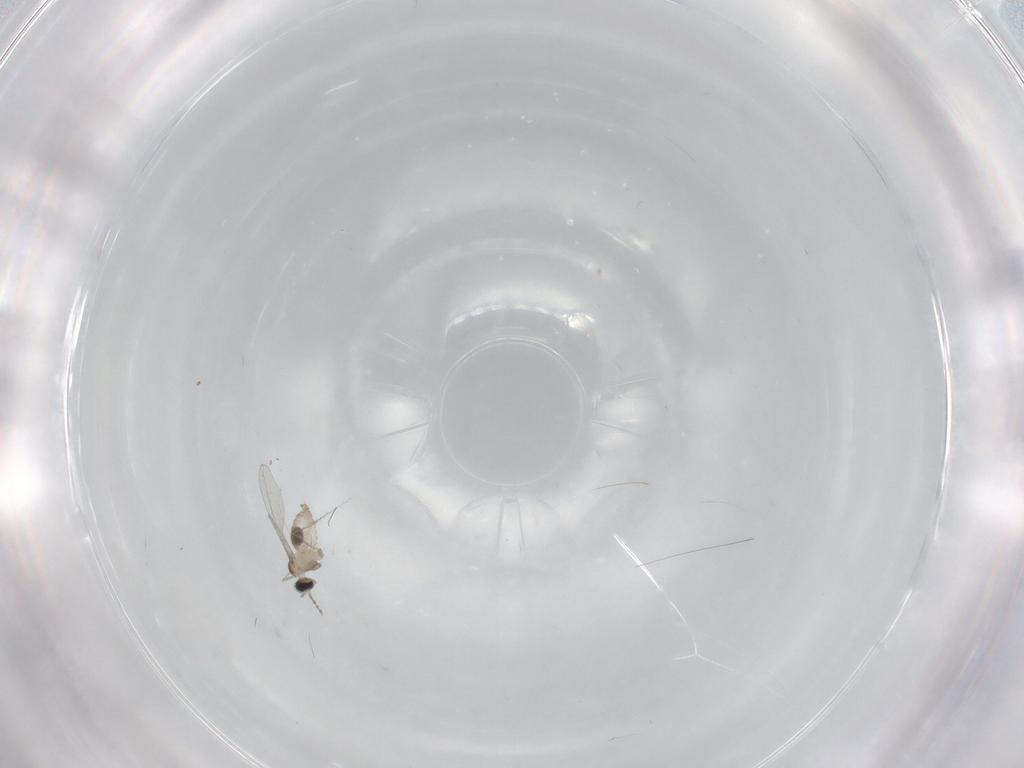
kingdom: Animalia
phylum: Arthropoda
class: Insecta
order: Diptera
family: Cecidomyiidae
